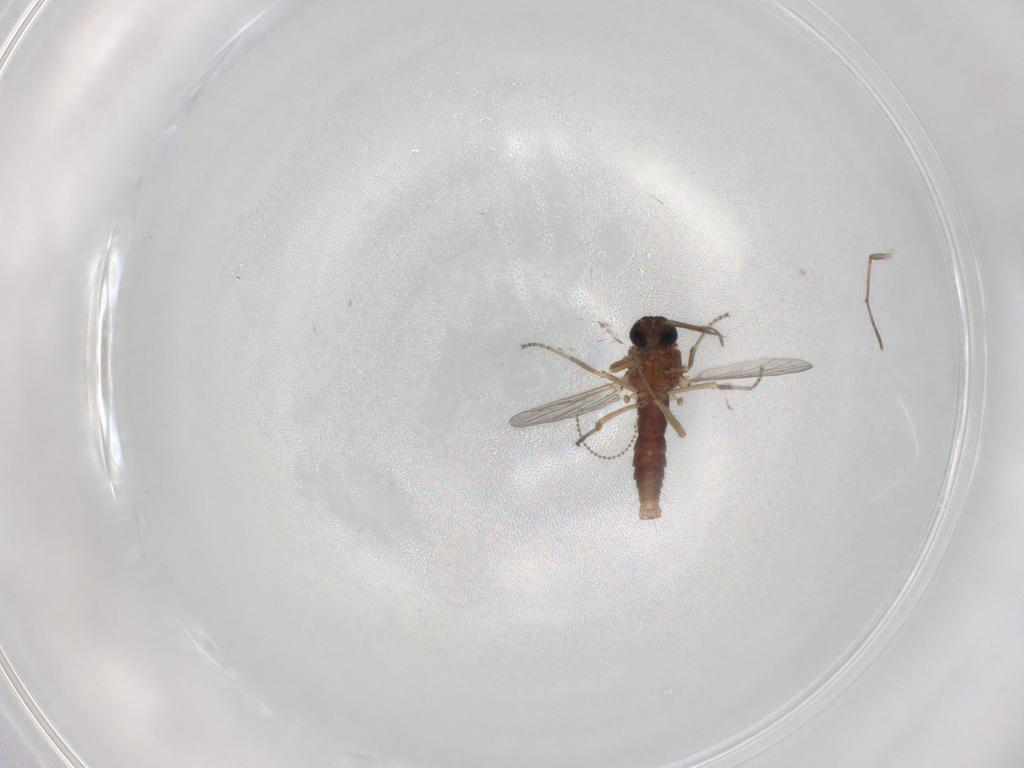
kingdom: Animalia
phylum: Arthropoda
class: Insecta
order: Diptera
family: Ceratopogonidae
